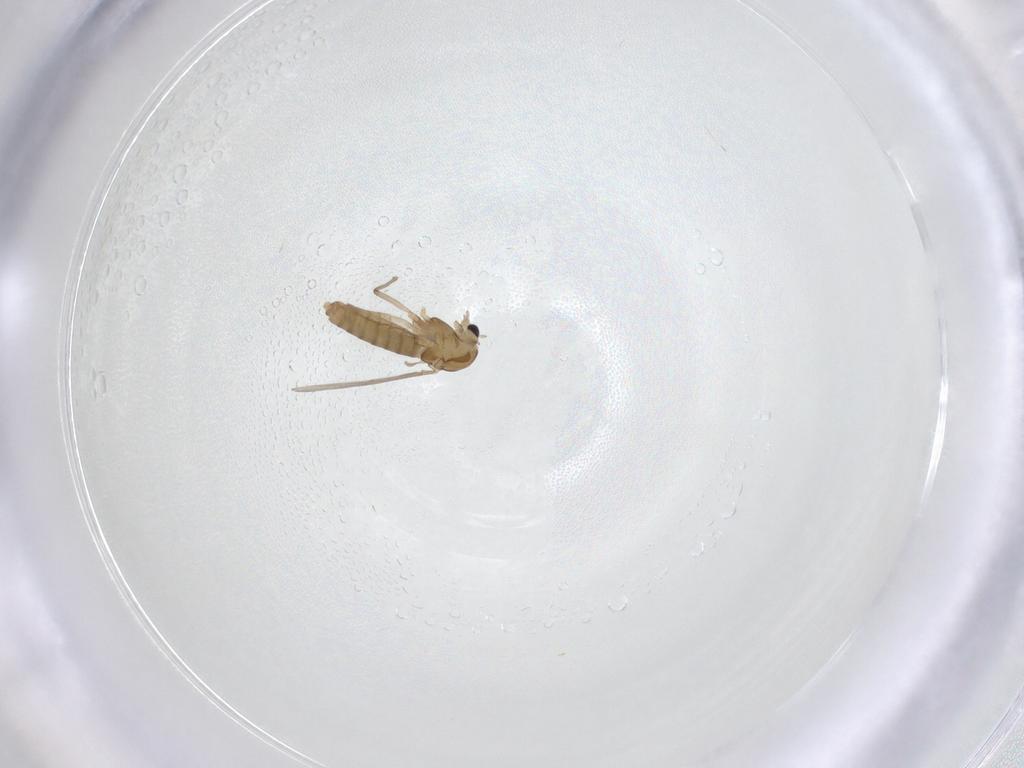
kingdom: Animalia
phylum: Arthropoda
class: Insecta
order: Diptera
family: Chironomidae
